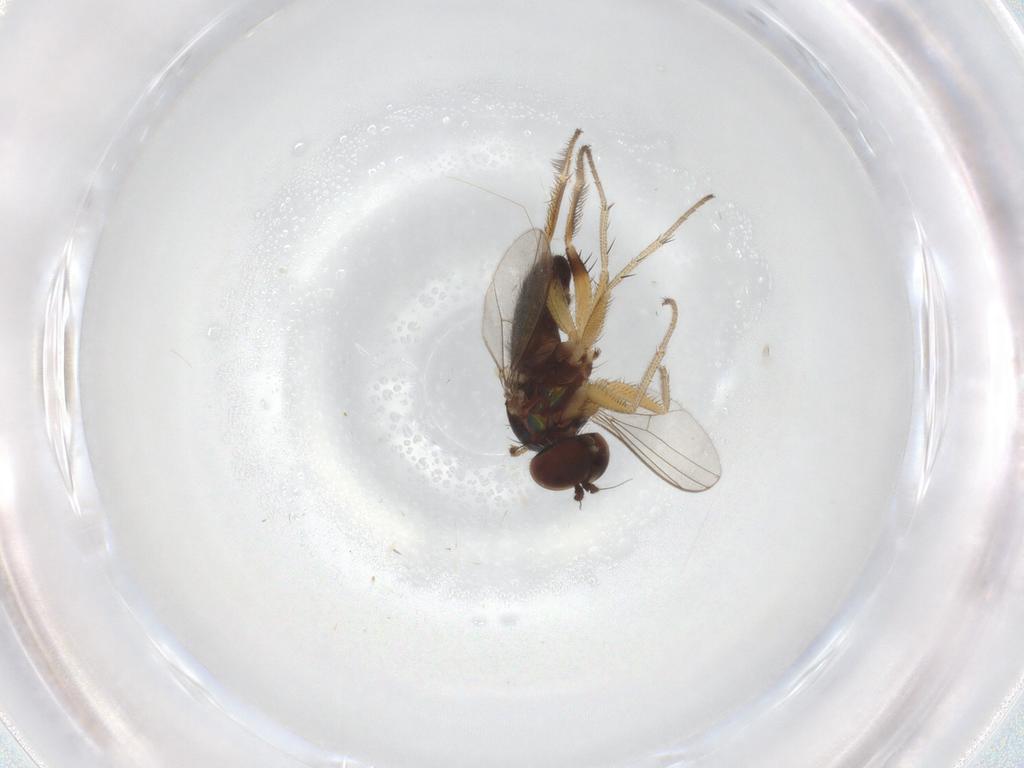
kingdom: Animalia
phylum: Arthropoda
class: Insecta
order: Diptera
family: Cecidomyiidae
